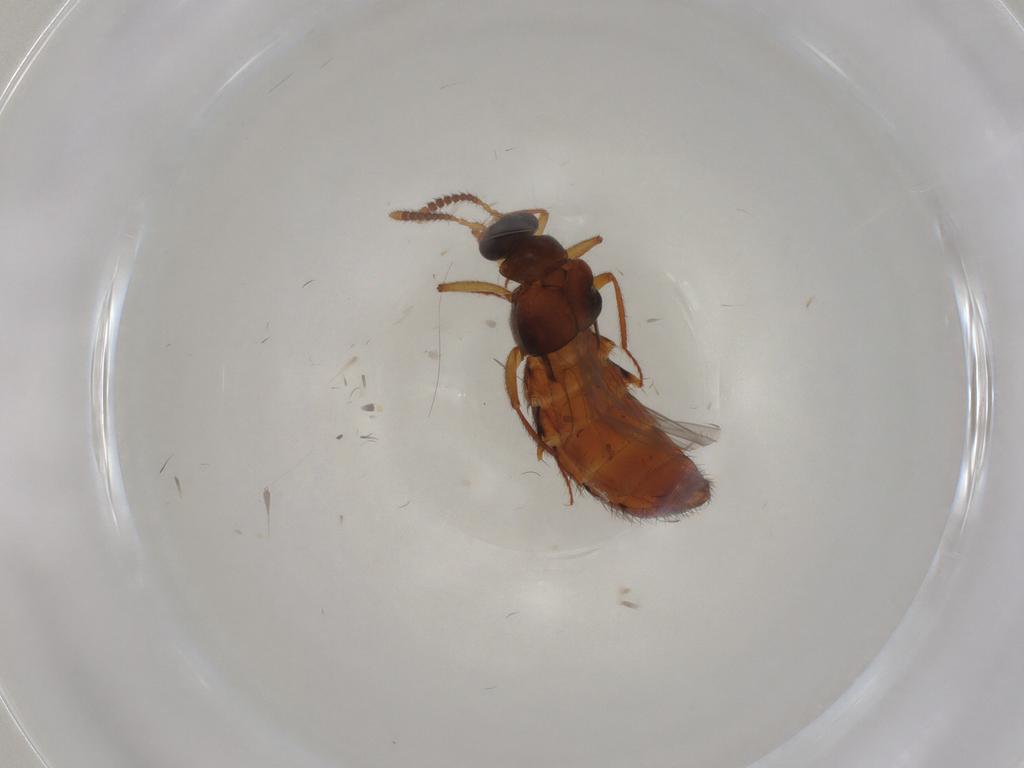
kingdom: Animalia
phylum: Arthropoda
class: Insecta
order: Coleoptera
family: Staphylinidae
